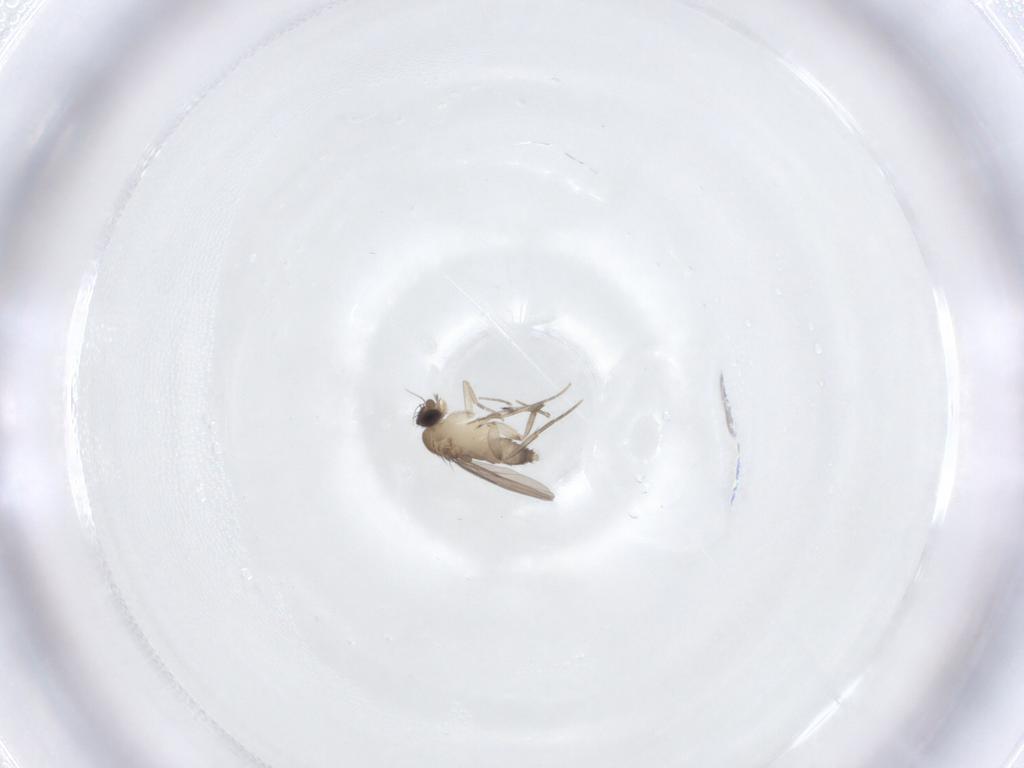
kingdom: Animalia
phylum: Arthropoda
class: Insecta
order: Diptera
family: Phoridae
